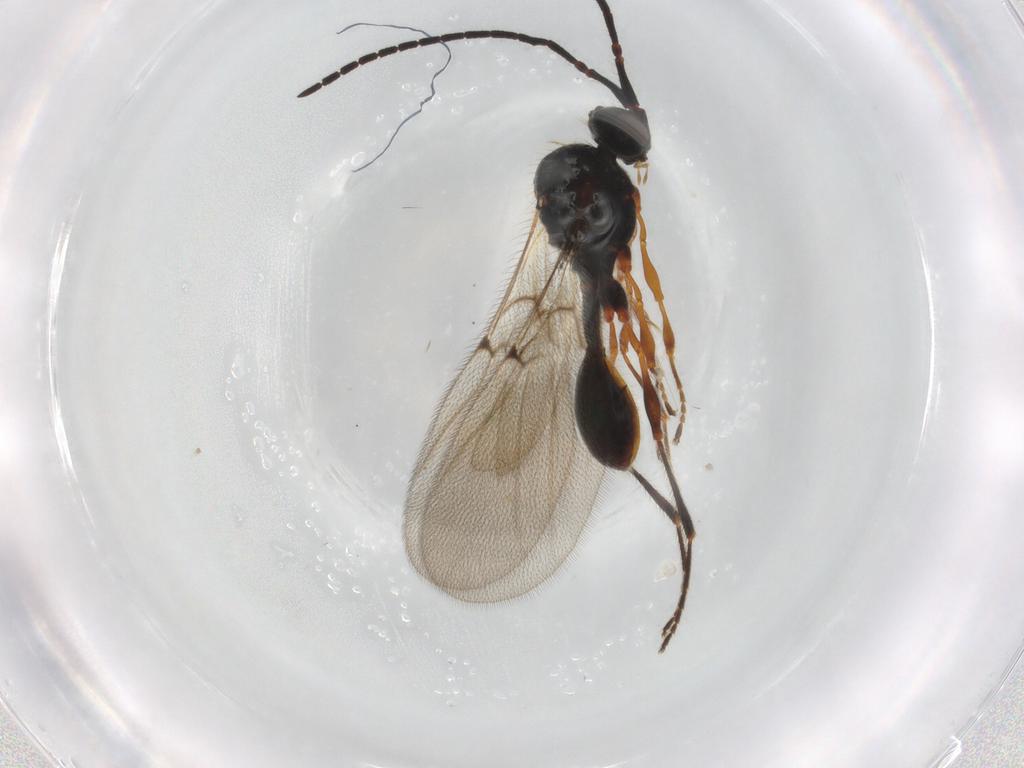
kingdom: Animalia
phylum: Arthropoda
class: Insecta
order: Hymenoptera
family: Diapriidae
